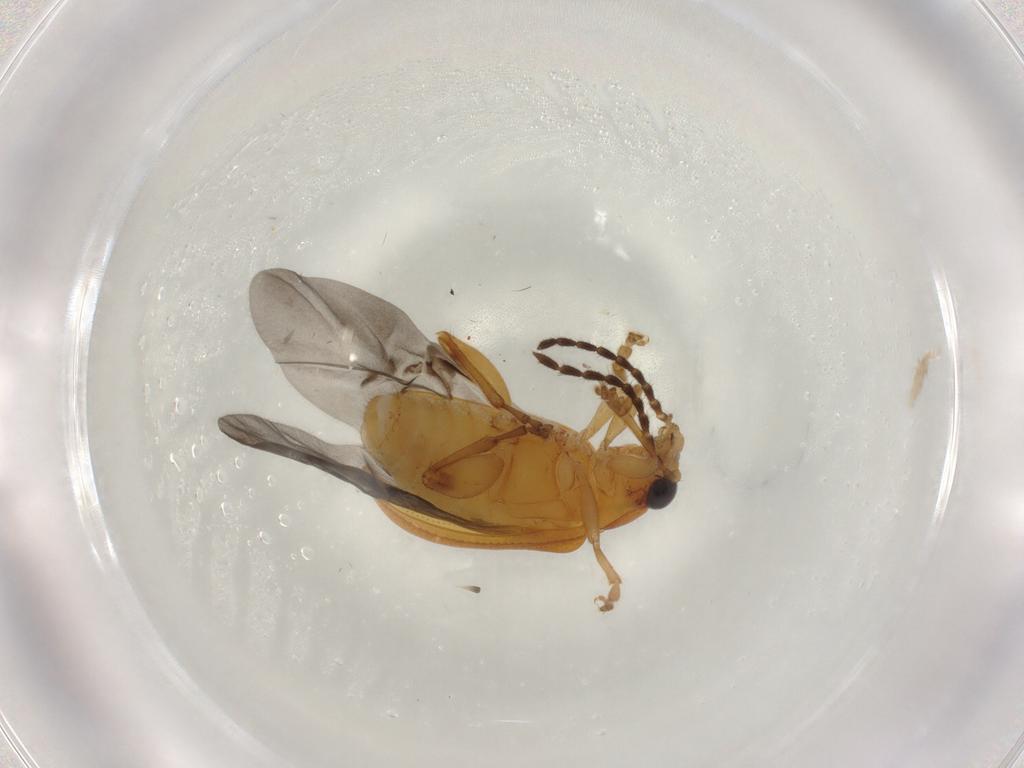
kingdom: Animalia
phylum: Arthropoda
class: Insecta
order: Coleoptera
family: Chrysomelidae
